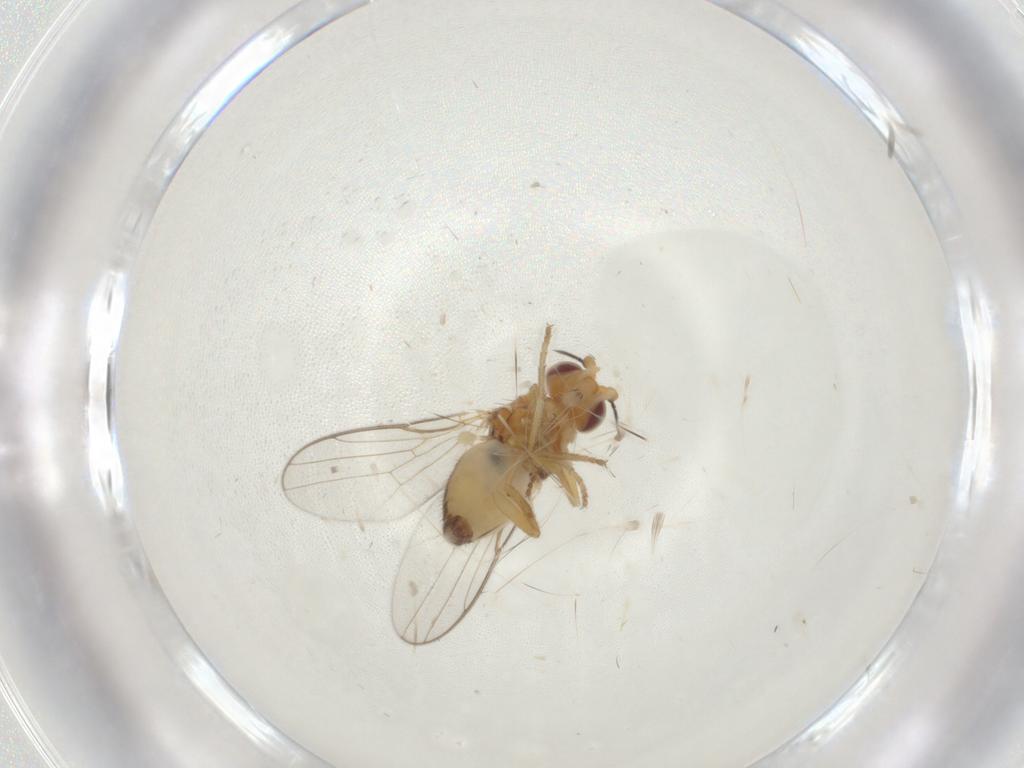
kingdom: Animalia
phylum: Arthropoda
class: Insecta
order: Diptera
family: Chloropidae
